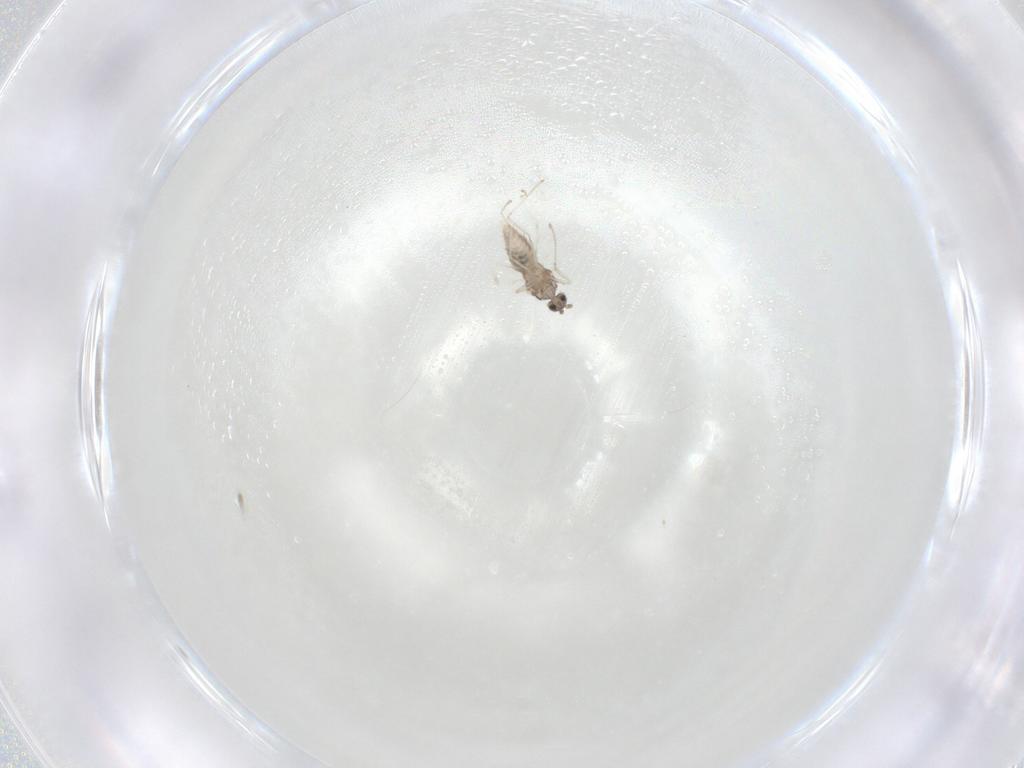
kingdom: Animalia
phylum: Arthropoda
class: Insecta
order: Diptera
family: Cecidomyiidae
